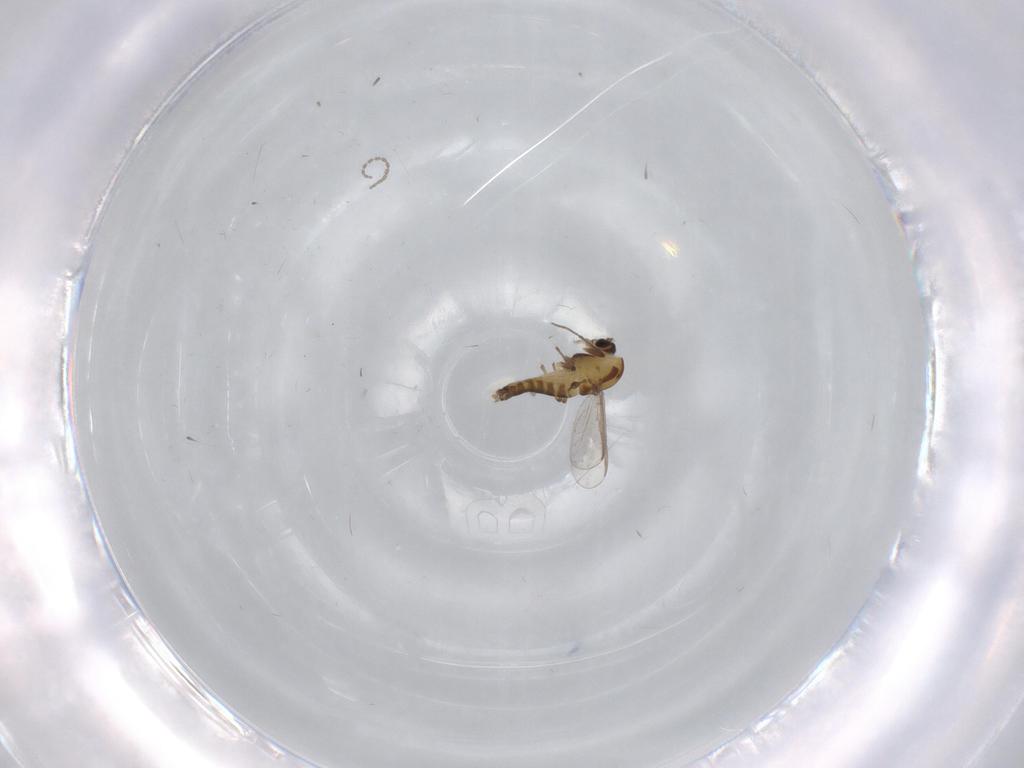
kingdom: Animalia
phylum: Arthropoda
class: Insecta
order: Diptera
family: Chironomidae
